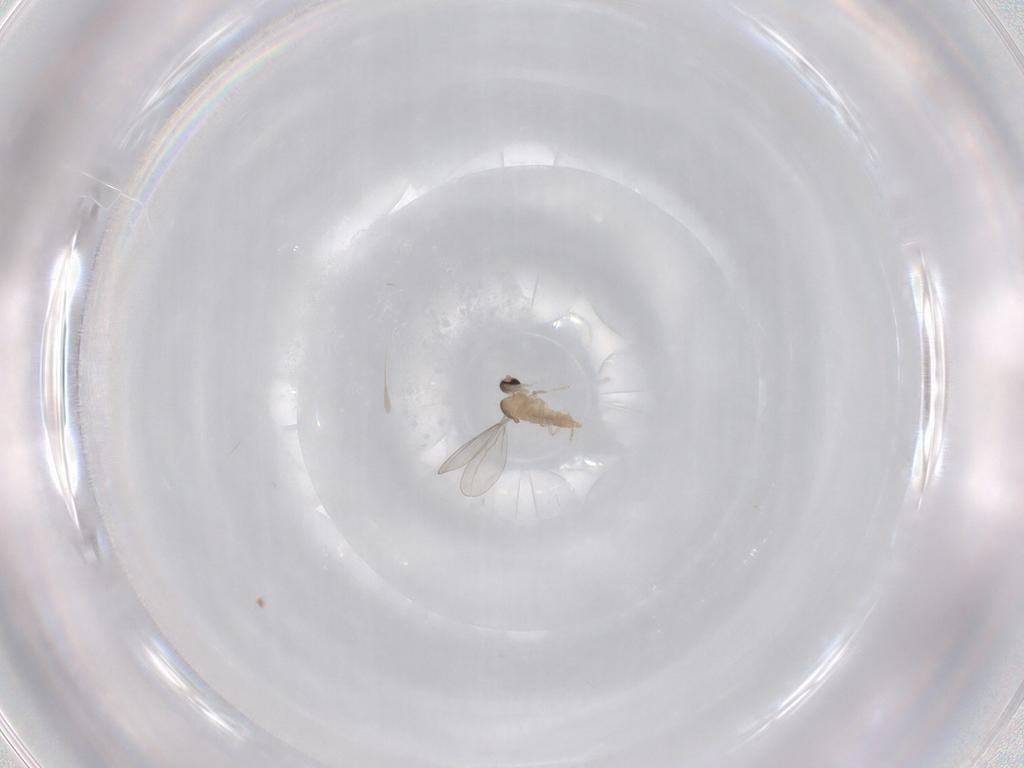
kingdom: Animalia
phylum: Arthropoda
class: Insecta
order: Diptera
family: Cecidomyiidae
